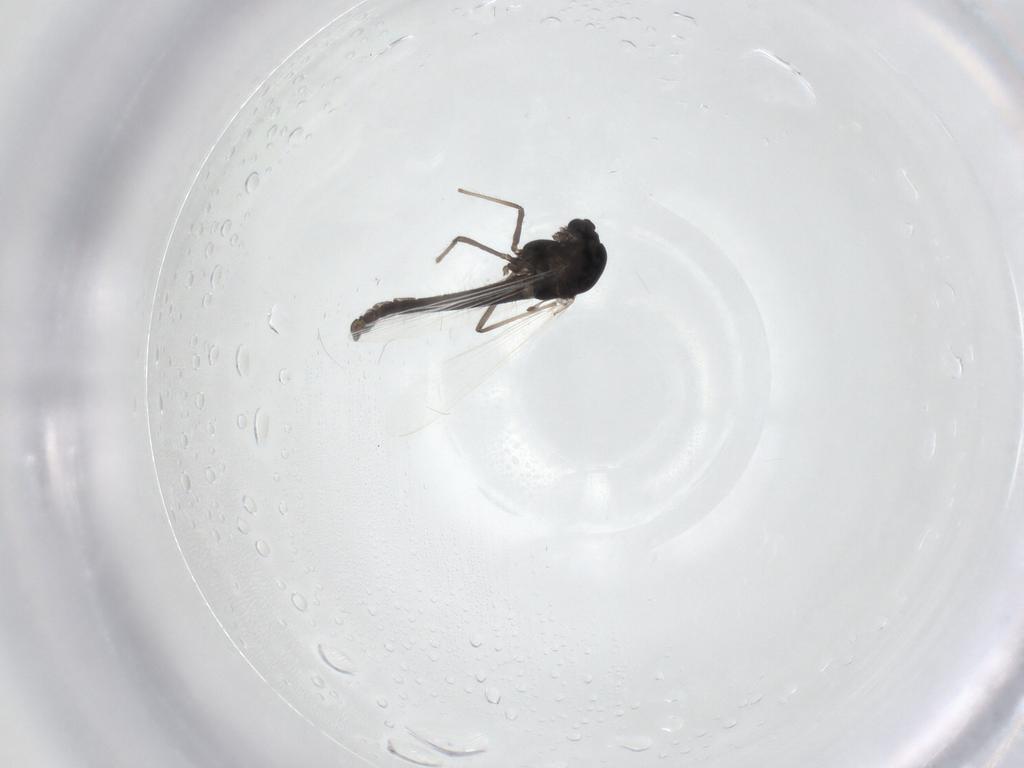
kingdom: Animalia
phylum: Arthropoda
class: Insecta
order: Diptera
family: Chironomidae
